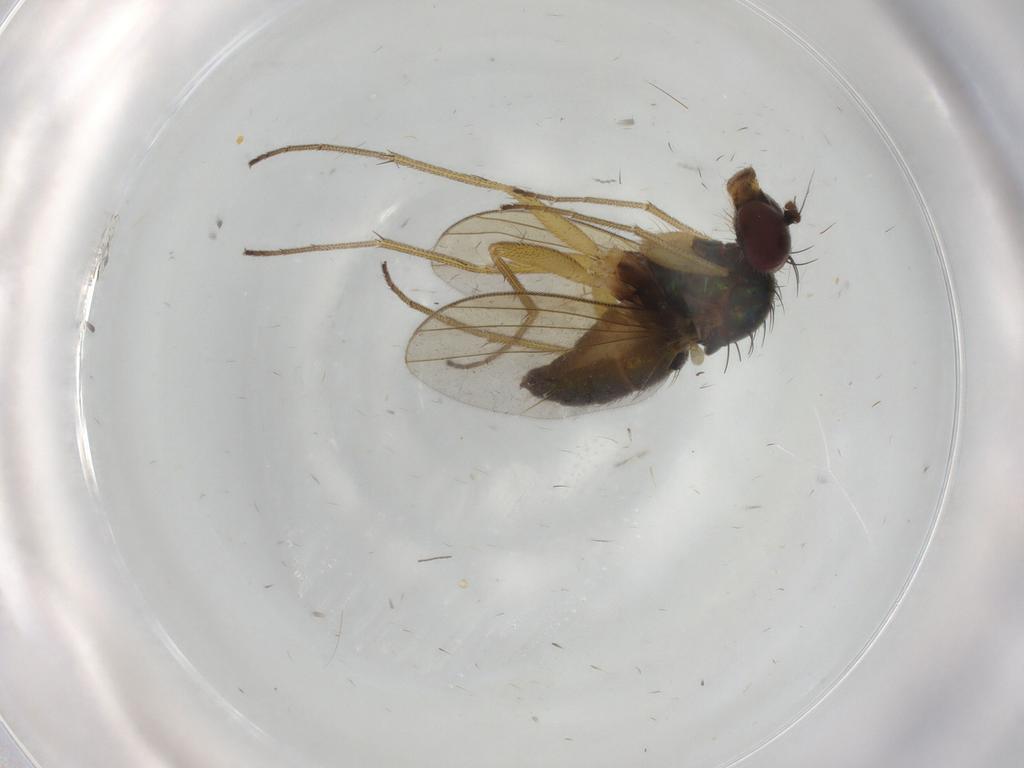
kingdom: Animalia
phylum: Arthropoda
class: Insecta
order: Diptera
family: Dolichopodidae
